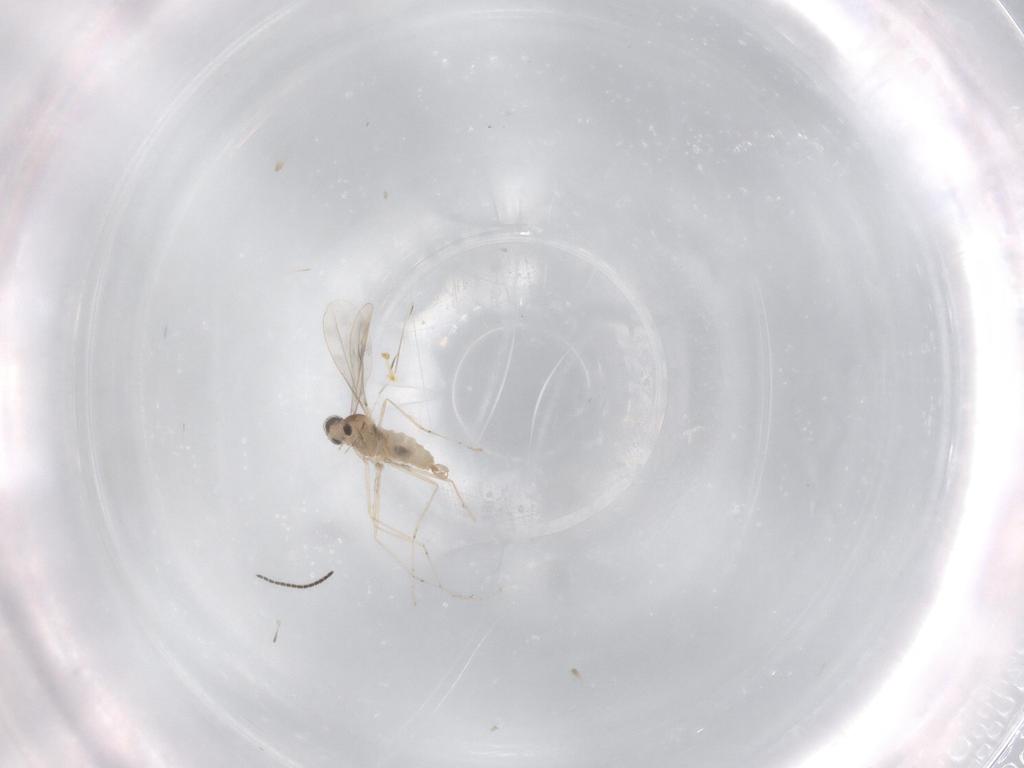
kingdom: Animalia
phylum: Arthropoda
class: Insecta
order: Diptera
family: Cecidomyiidae
